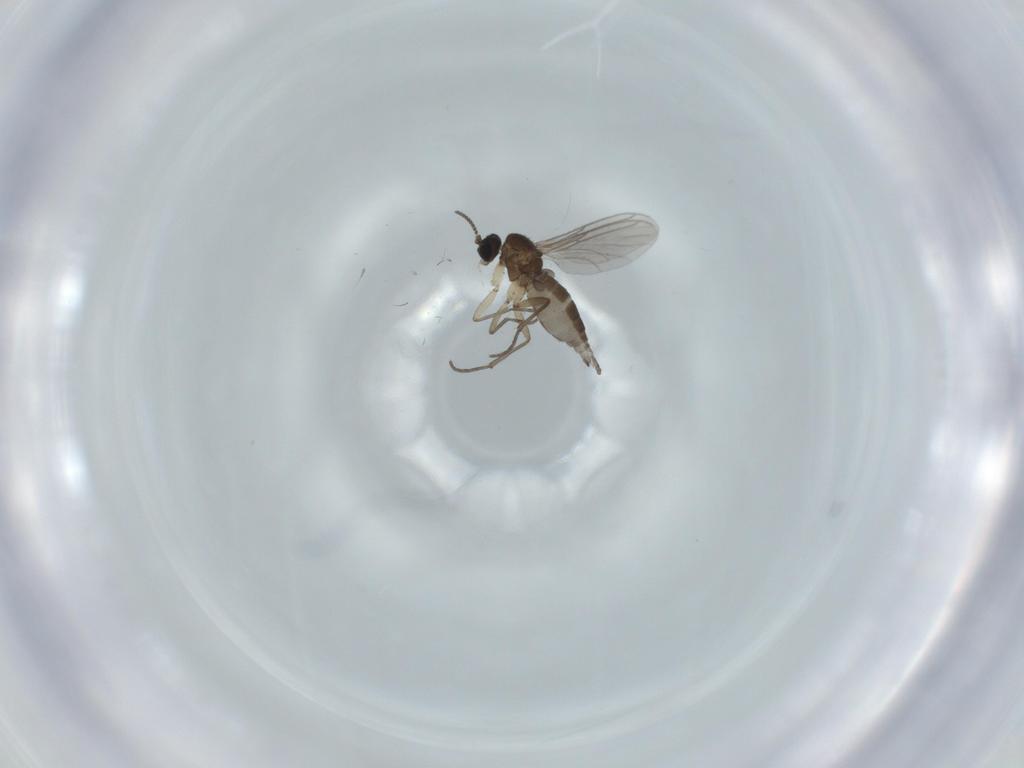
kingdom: Animalia
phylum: Arthropoda
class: Insecta
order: Diptera
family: Sciaridae
